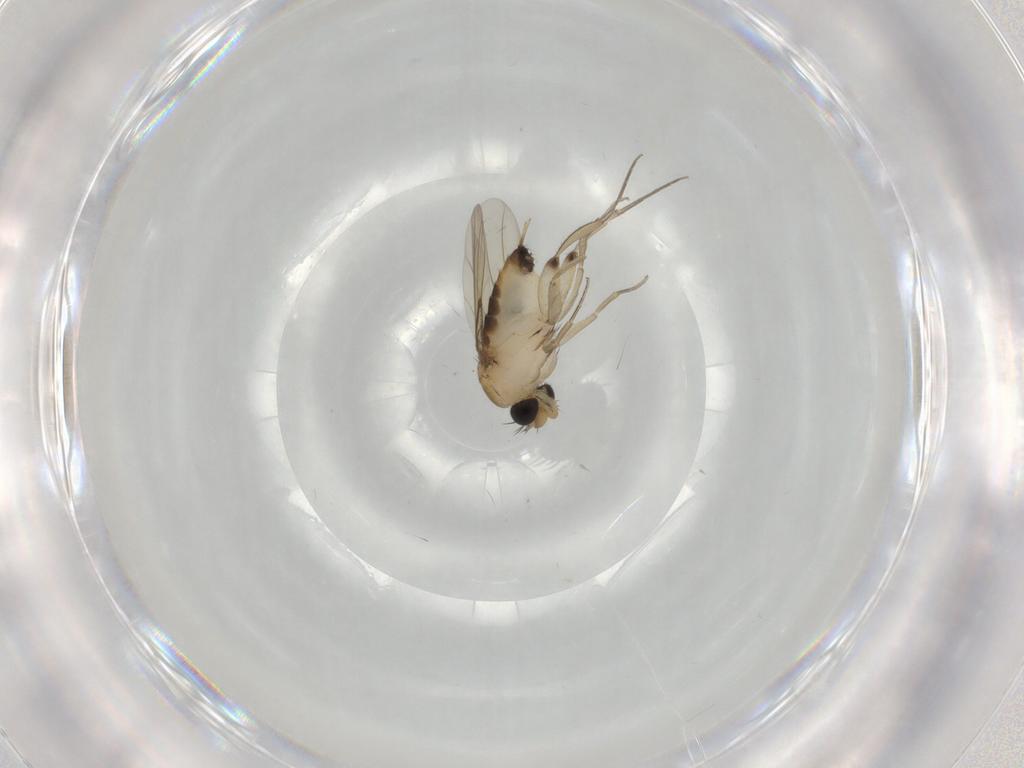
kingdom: Animalia
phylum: Arthropoda
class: Insecta
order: Diptera
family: Phoridae
